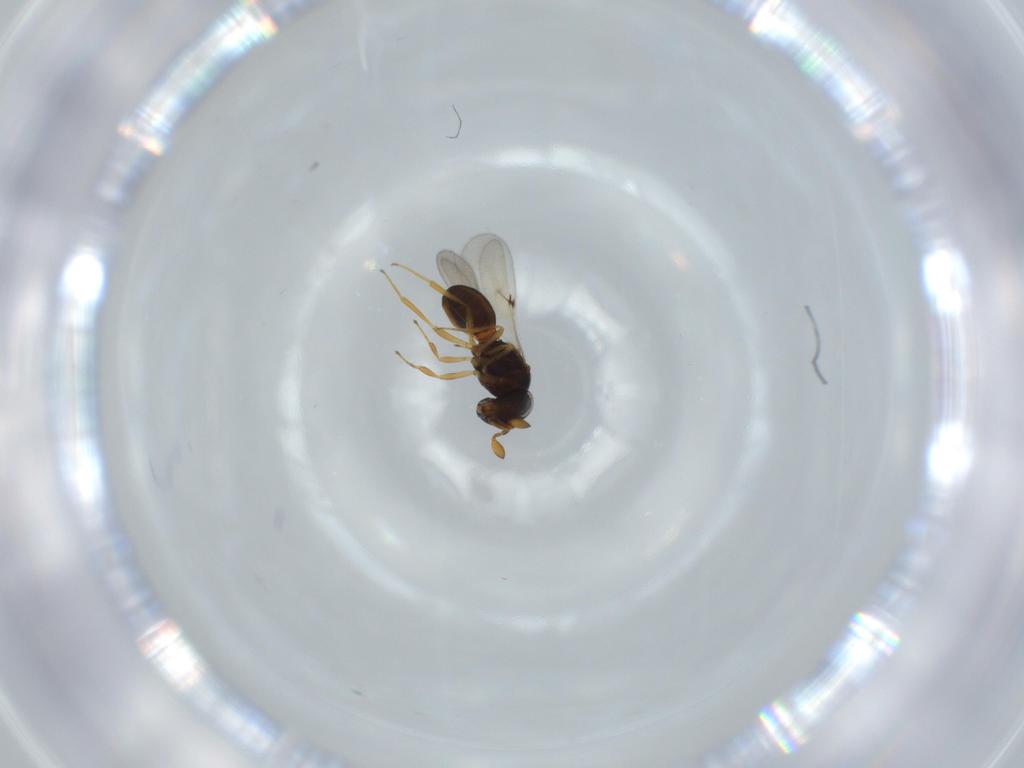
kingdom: Animalia
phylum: Arthropoda
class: Insecta
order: Hymenoptera
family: Scelionidae
